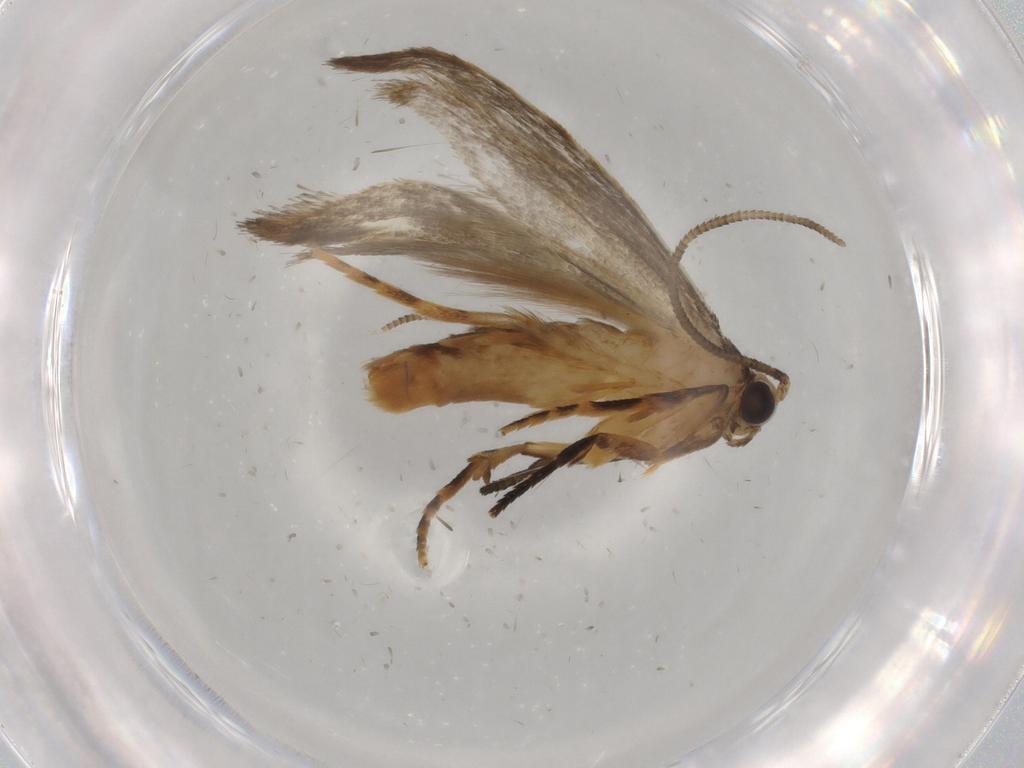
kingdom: Animalia
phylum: Arthropoda
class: Insecta
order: Lepidoptera
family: Tineidae
